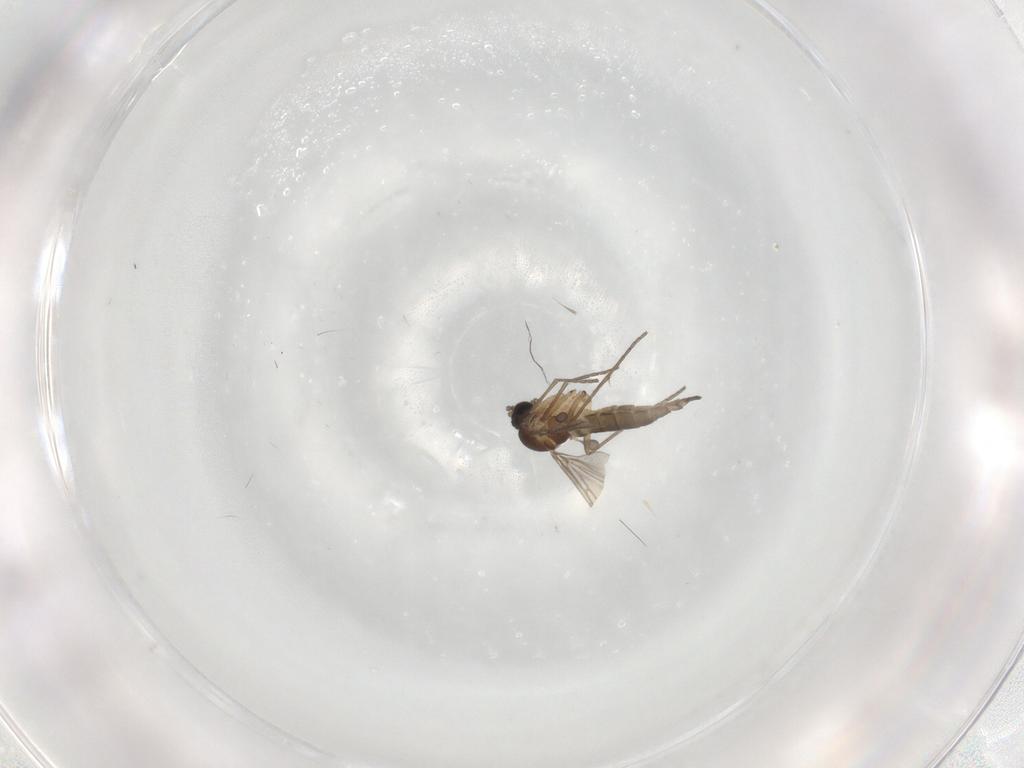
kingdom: Animalia
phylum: Arthropoda
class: Insecta
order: Diptera
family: Sciaridae
